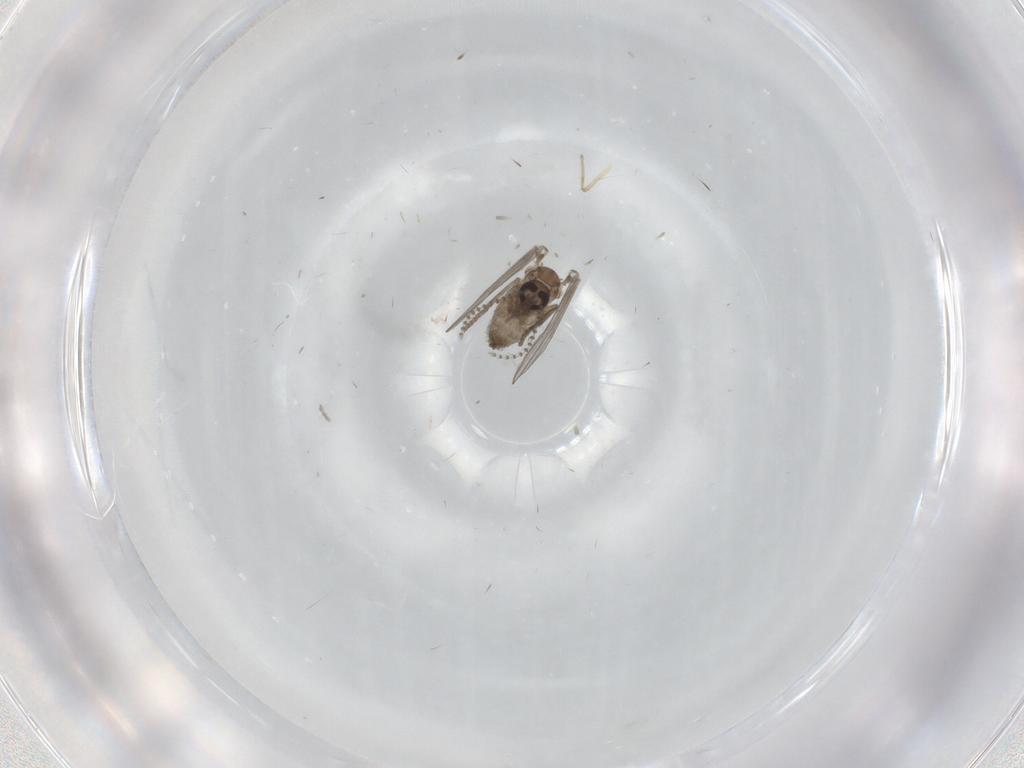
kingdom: Animalia
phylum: Arthropoda
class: Insecta
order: Diptera
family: Psychodidae
